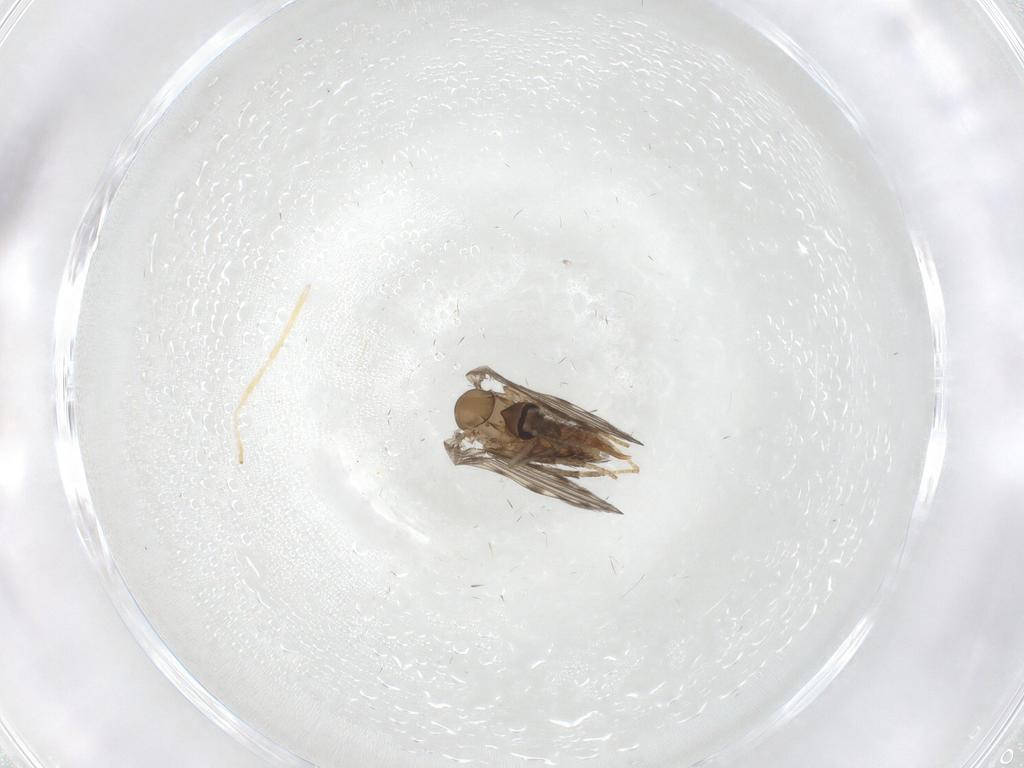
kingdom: Animalia
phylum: Arthropoda
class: Insecta
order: Diptera
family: Psychodidae
